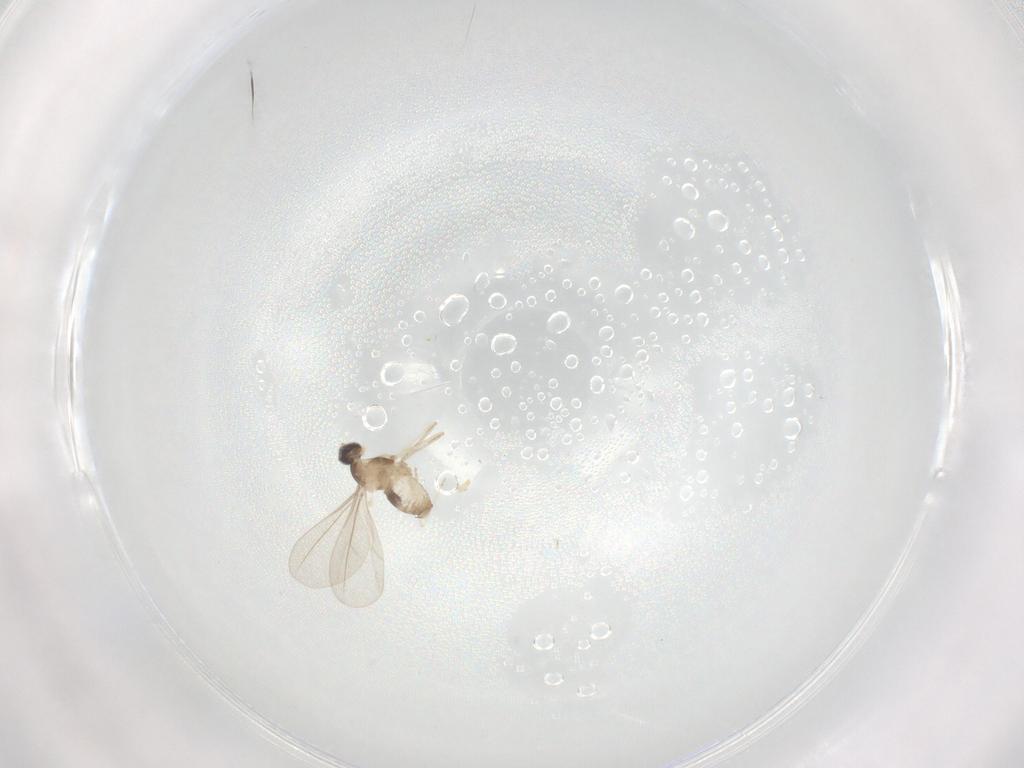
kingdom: Animalia
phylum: Arthropoda
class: Insecta
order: Diptera
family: Cecidomyiidae
